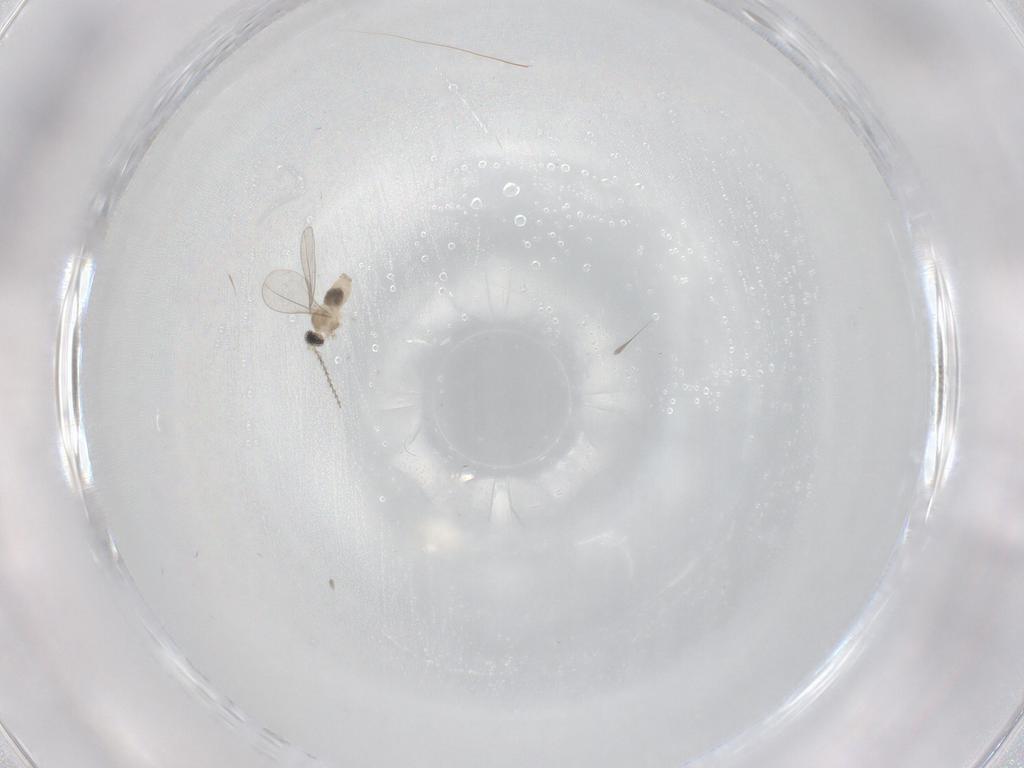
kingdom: Animalia
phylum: Arthropoda
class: Insecta
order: Diptera
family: Cecidomyiidae
